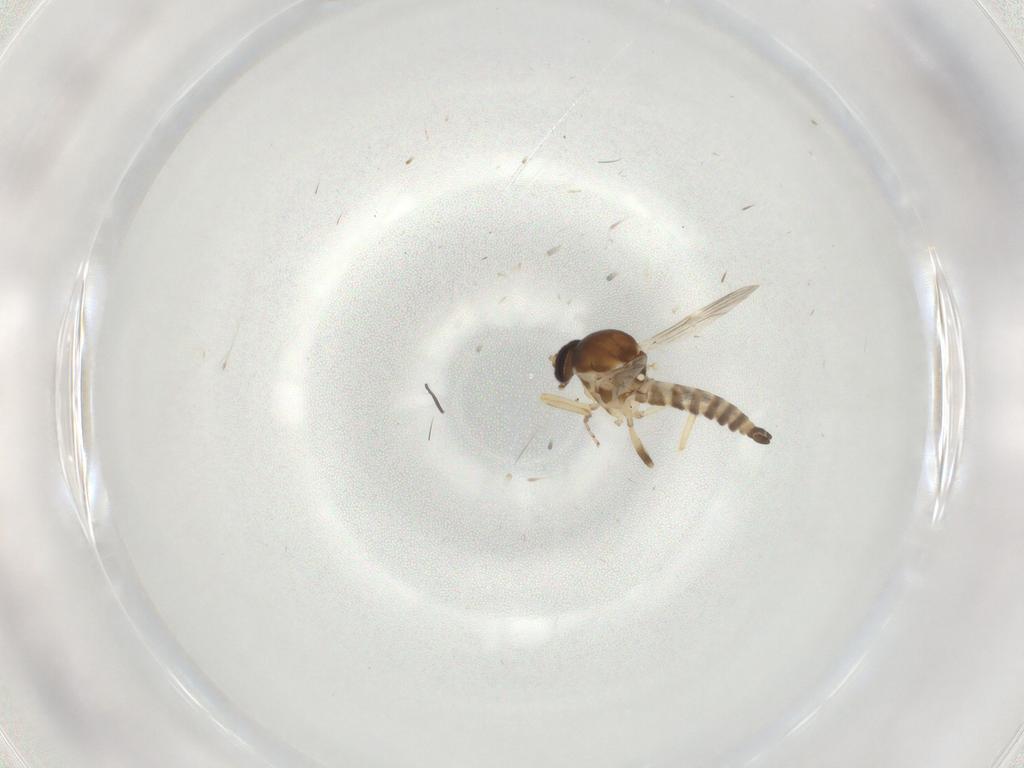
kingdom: Animalia
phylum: Arthropoda
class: Insecta
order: Diptera
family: Ceratopogonidae
